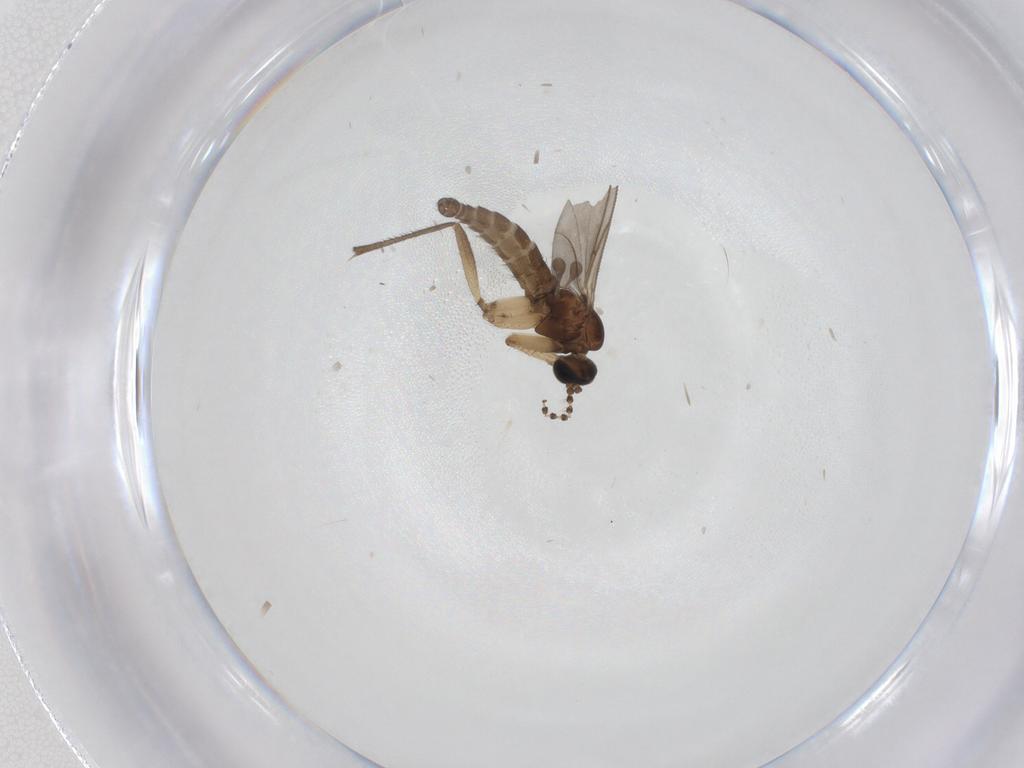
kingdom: Animalia
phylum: Arthropoda
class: Insecta
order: Diptera
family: Sciaridae
